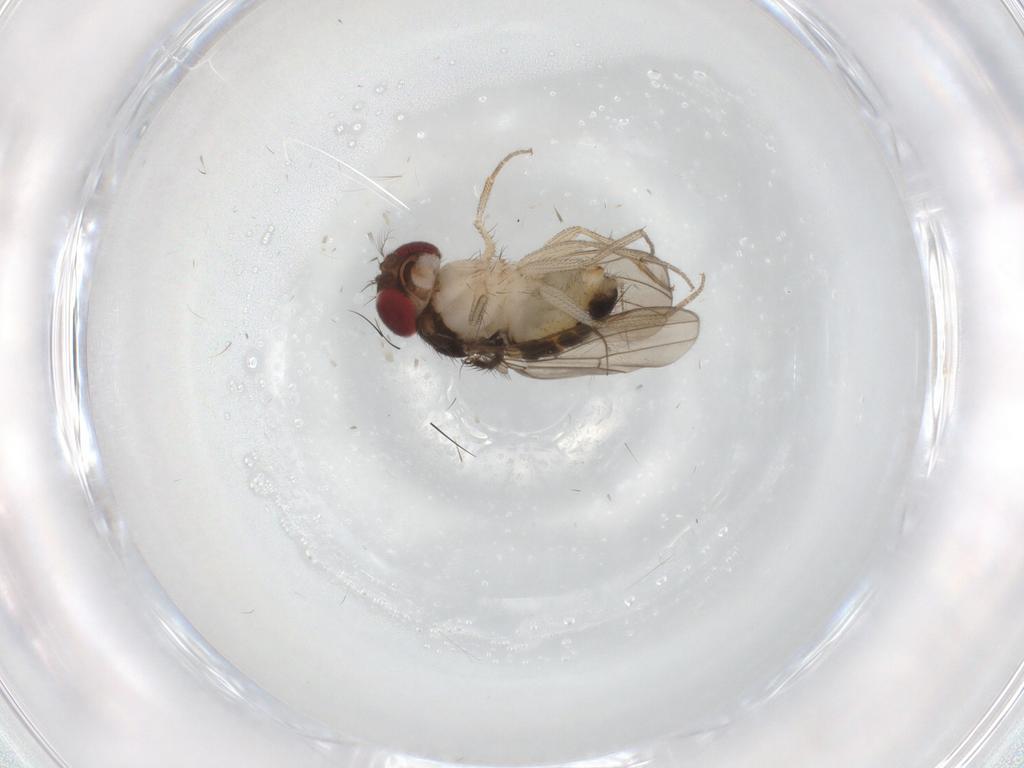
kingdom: Animalia
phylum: Arthropoda
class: Insecta
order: Diptera
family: Drosophilidae
